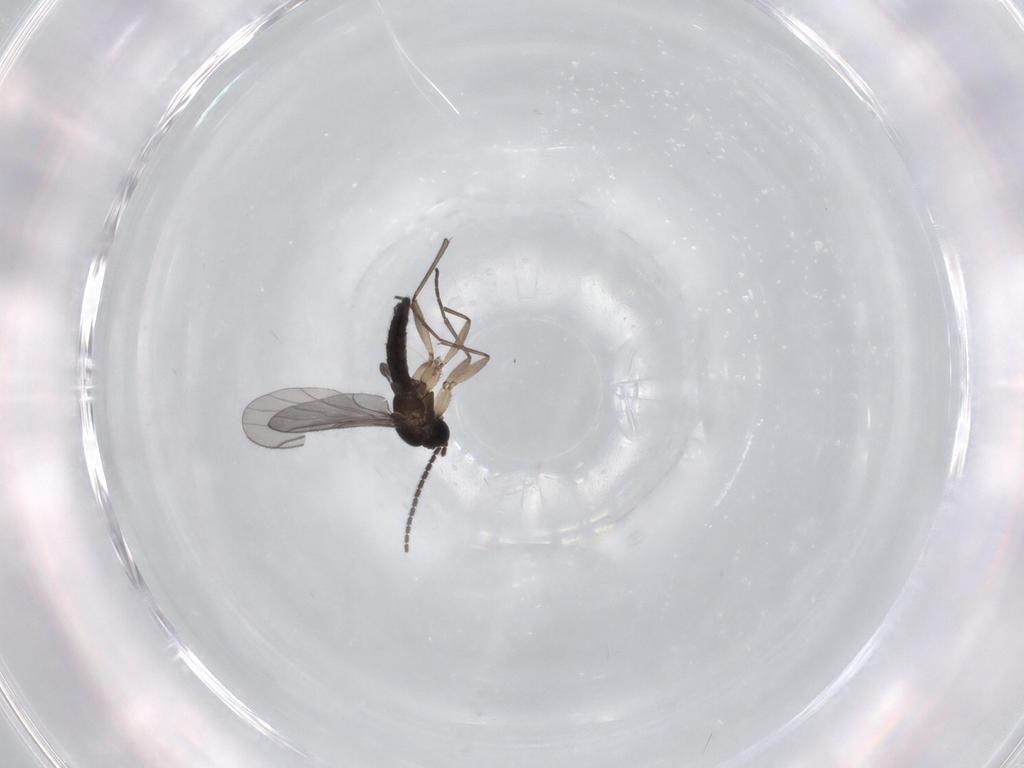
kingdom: Animalia
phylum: Arthropoda
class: Insecta
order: Diptera
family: Sciaridae
